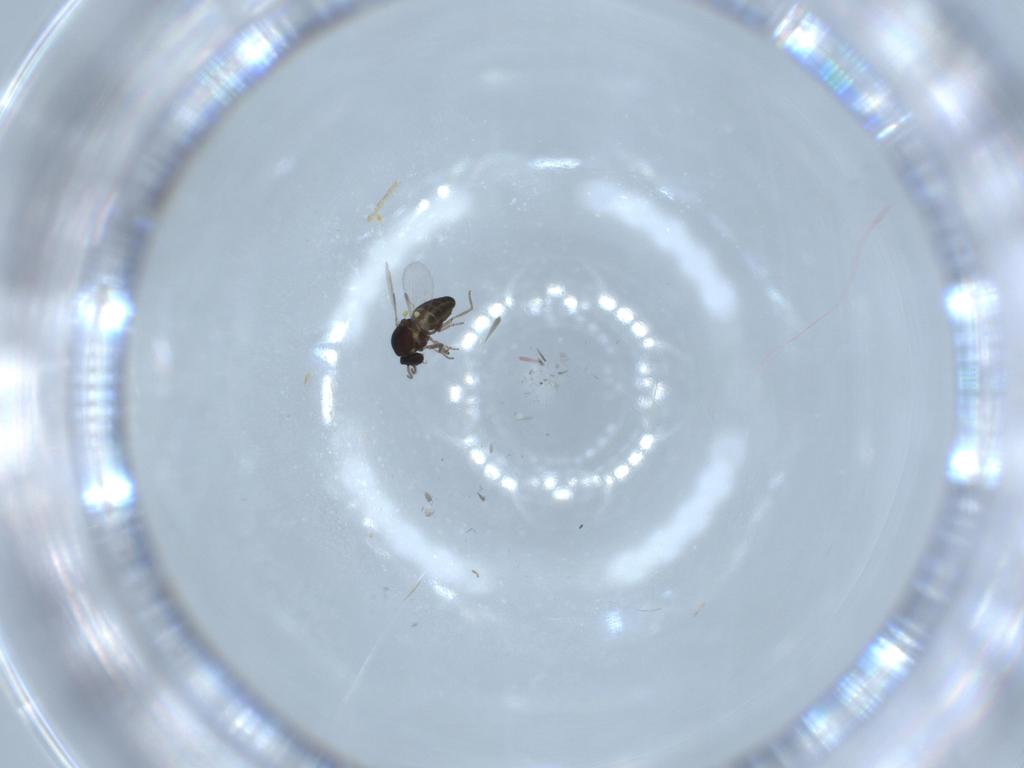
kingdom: Animalia
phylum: Arthropoda
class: Insecta
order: Diptera
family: Ceratopogonidae
